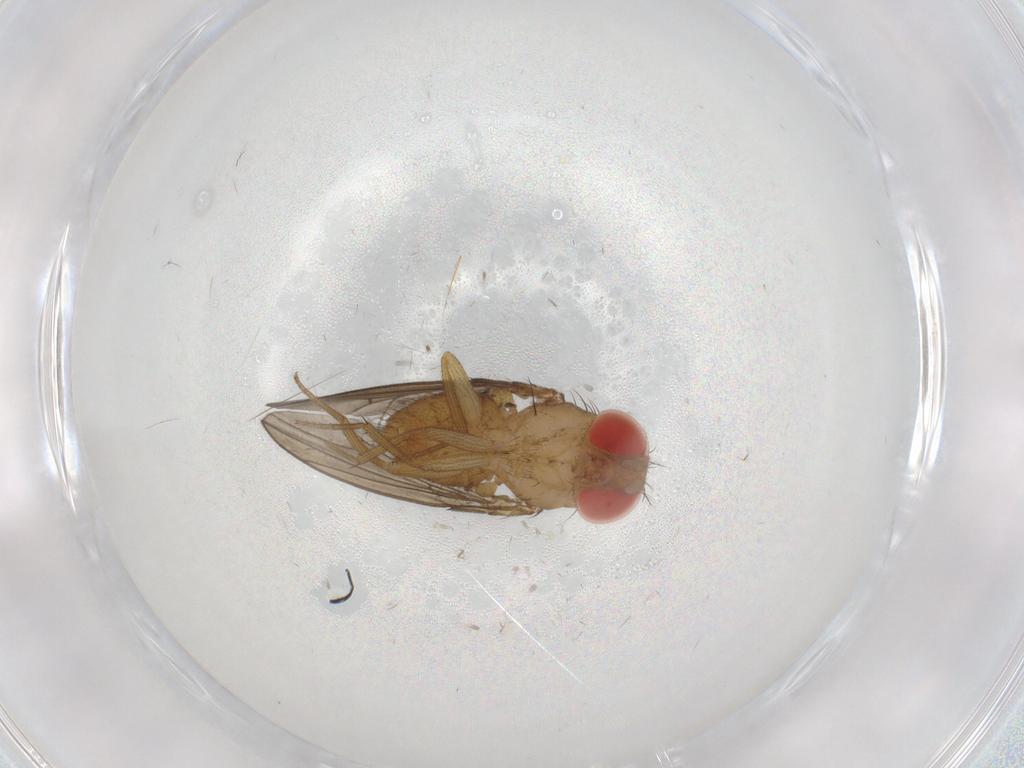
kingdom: Animalia
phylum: Arthropoda
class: Insecta
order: Diptera
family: Drosophilidae
